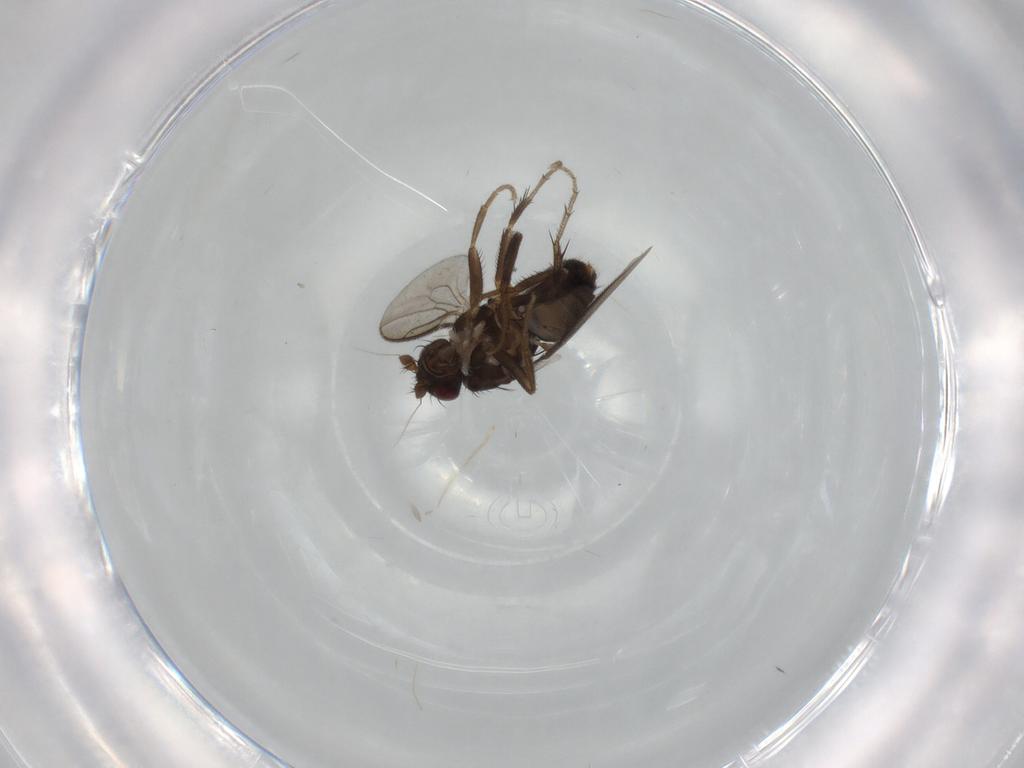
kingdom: Animalia
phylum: Arthropoda
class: Insecta
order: Diptera
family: Sphaeroceridae
